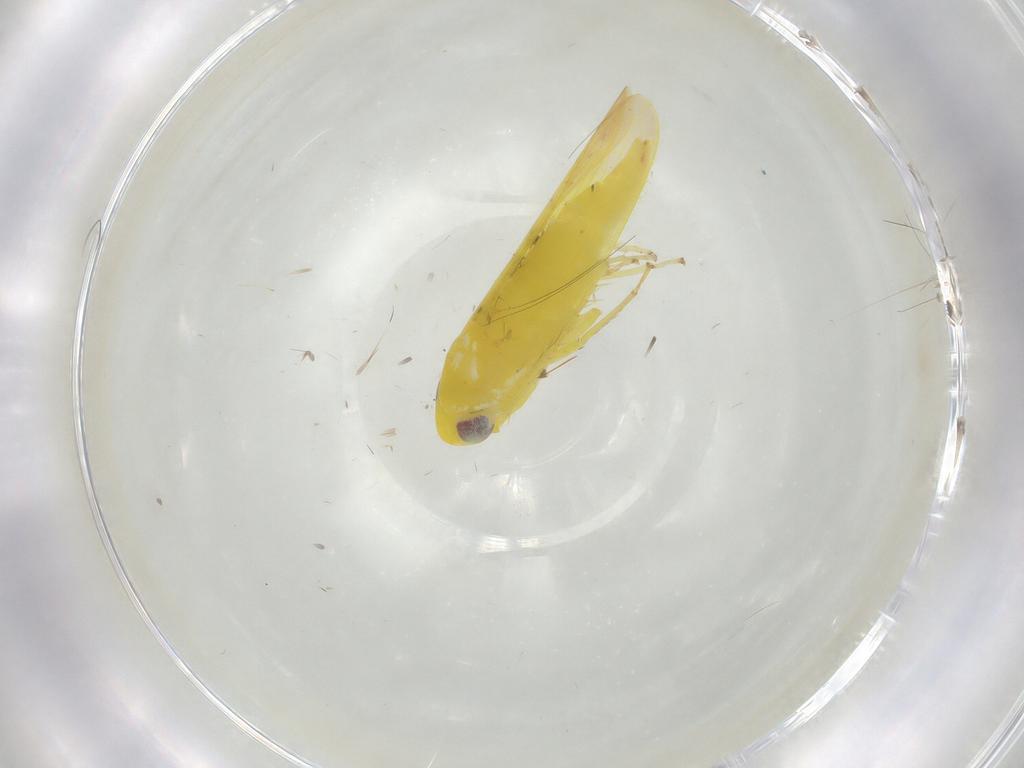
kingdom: Animalia
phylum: Arthropoda
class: Insecta
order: Hemiptera
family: Cicadellidae
